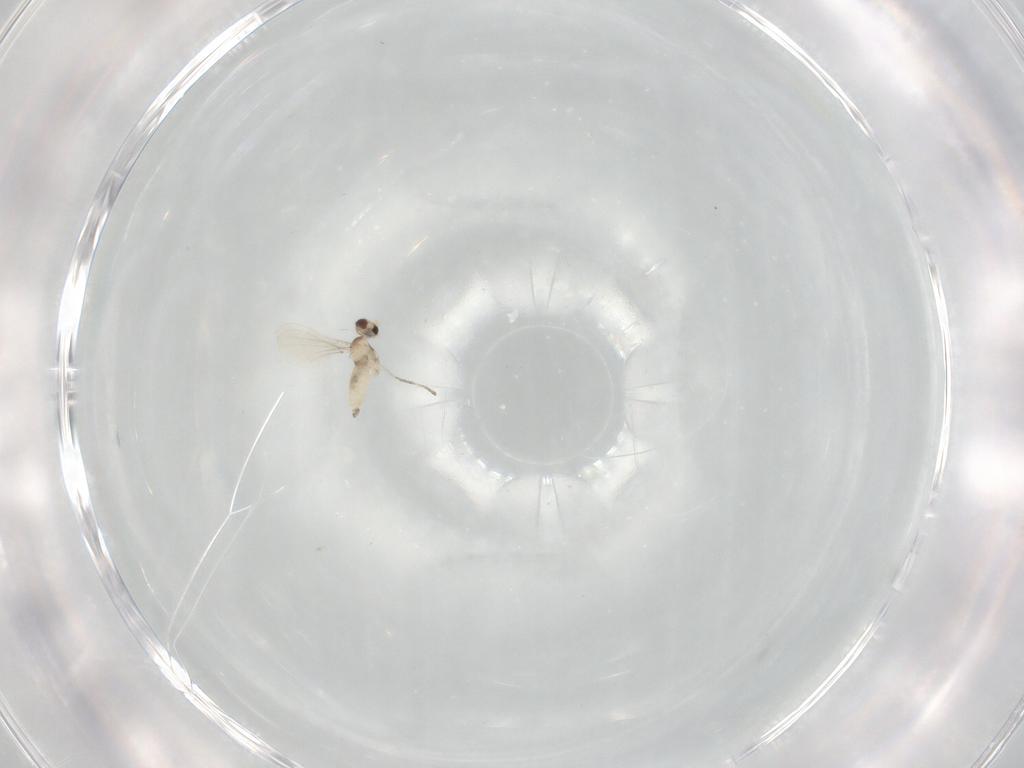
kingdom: Animalia
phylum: Arthropoda
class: Insecta
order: Diptera
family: Cecidomyiidae
